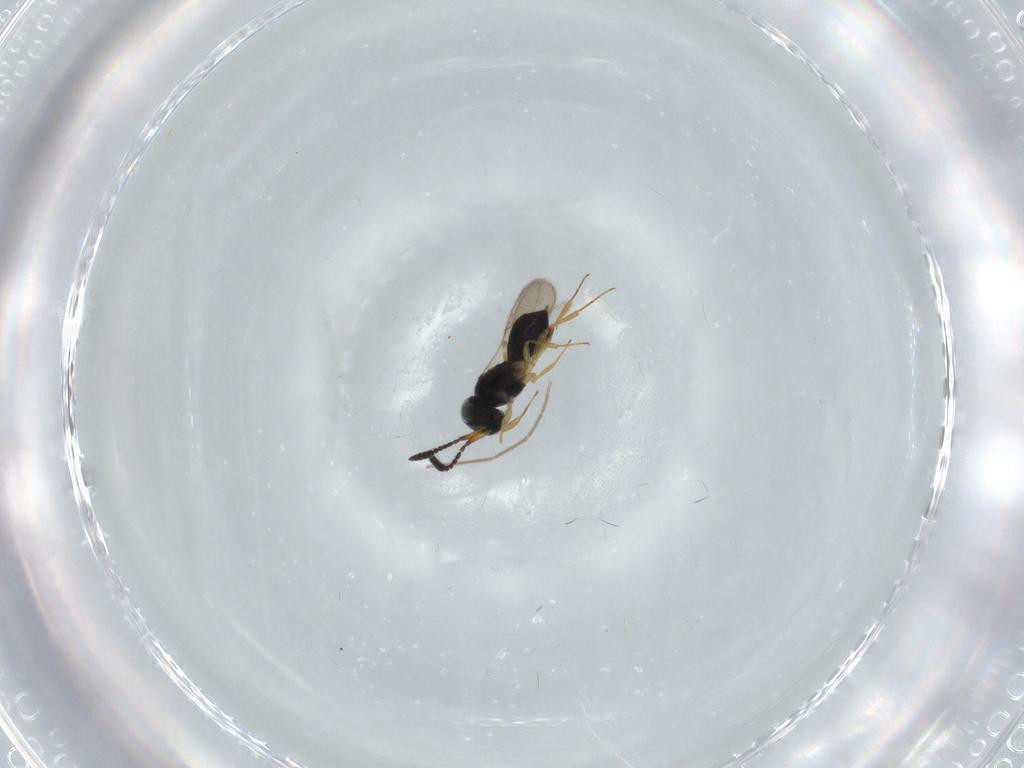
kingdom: Animalia
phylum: Arthropoda
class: Insecta
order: Hymenoptera
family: Scelionidae
